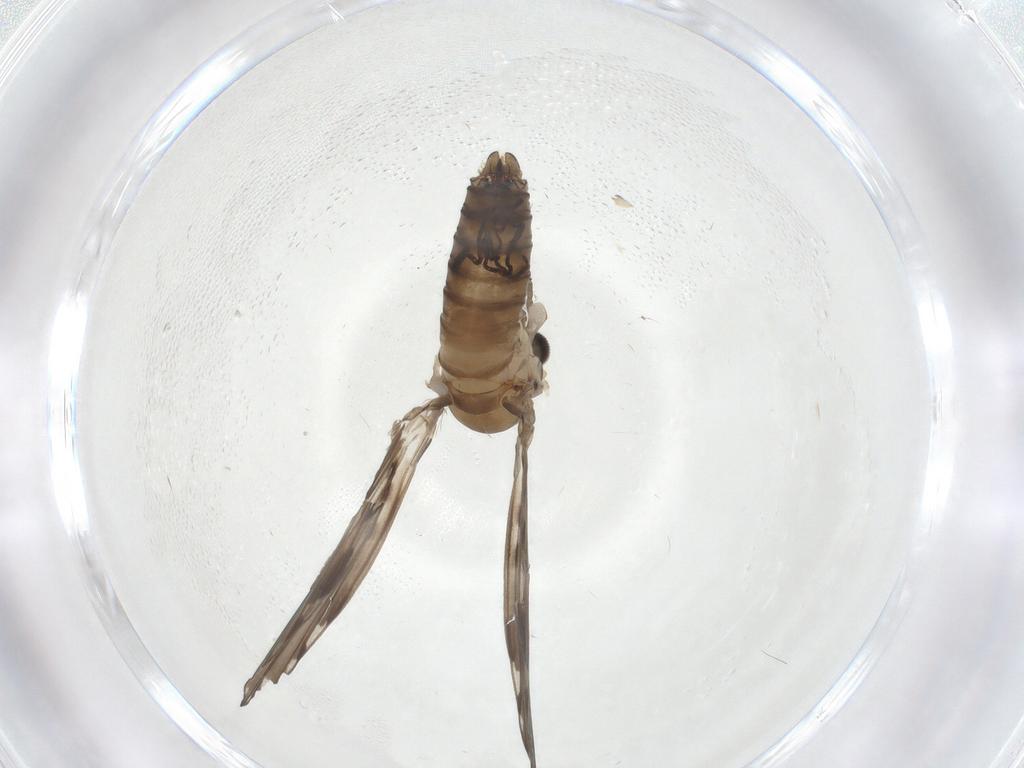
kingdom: Animalia
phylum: Arthropoda
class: Insecta
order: Diptera
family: Psychodidae
